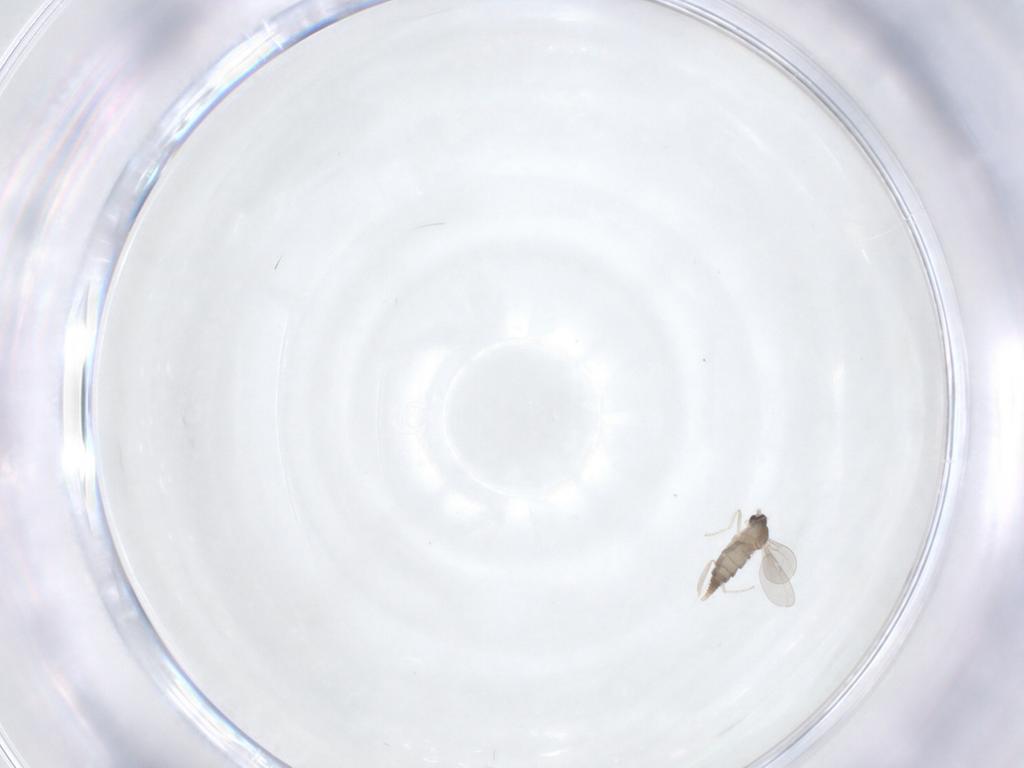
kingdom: Animalia
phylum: Arthropoda
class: Insecta
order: Diptera
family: Cecidomyiidae
